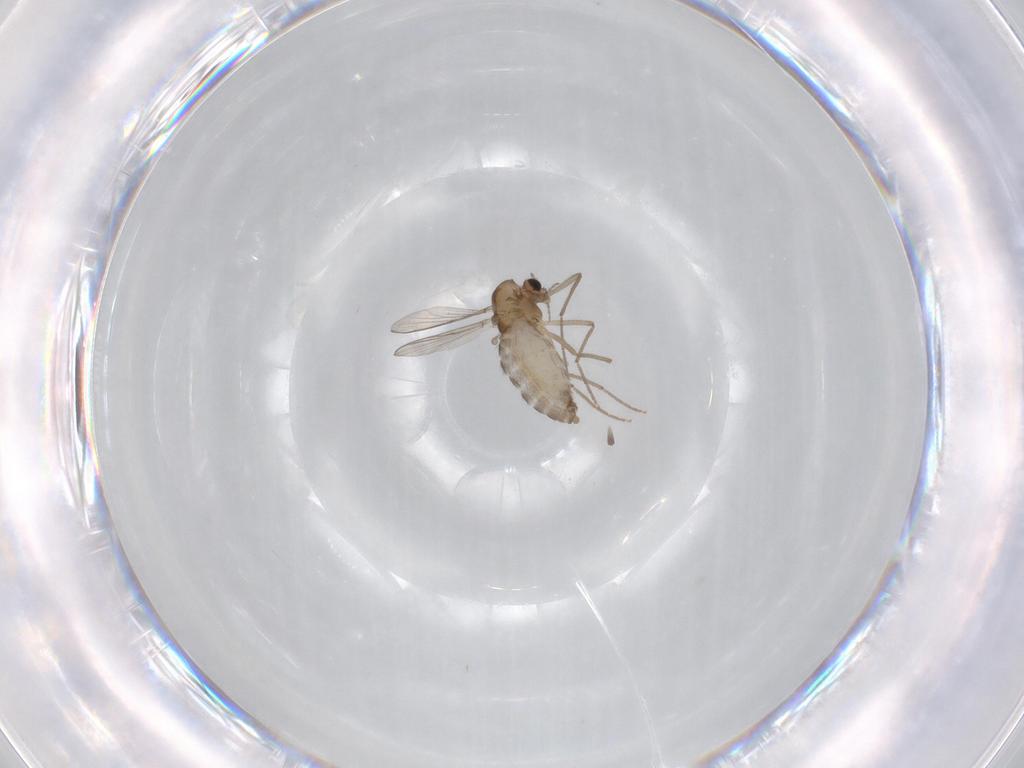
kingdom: Animalia
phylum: Arthropoda
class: Insecta
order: Diptera
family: Chironomidae
